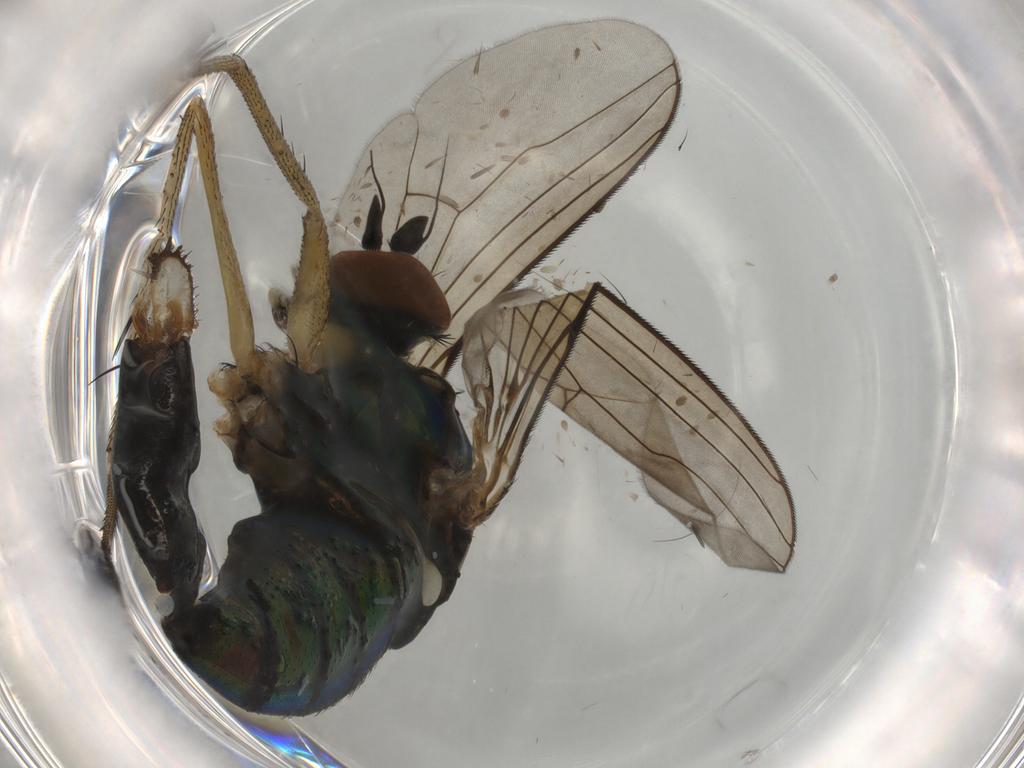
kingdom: Animalia
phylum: Arthropoda
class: Insecta
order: Diptera
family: Dolichopodidae
